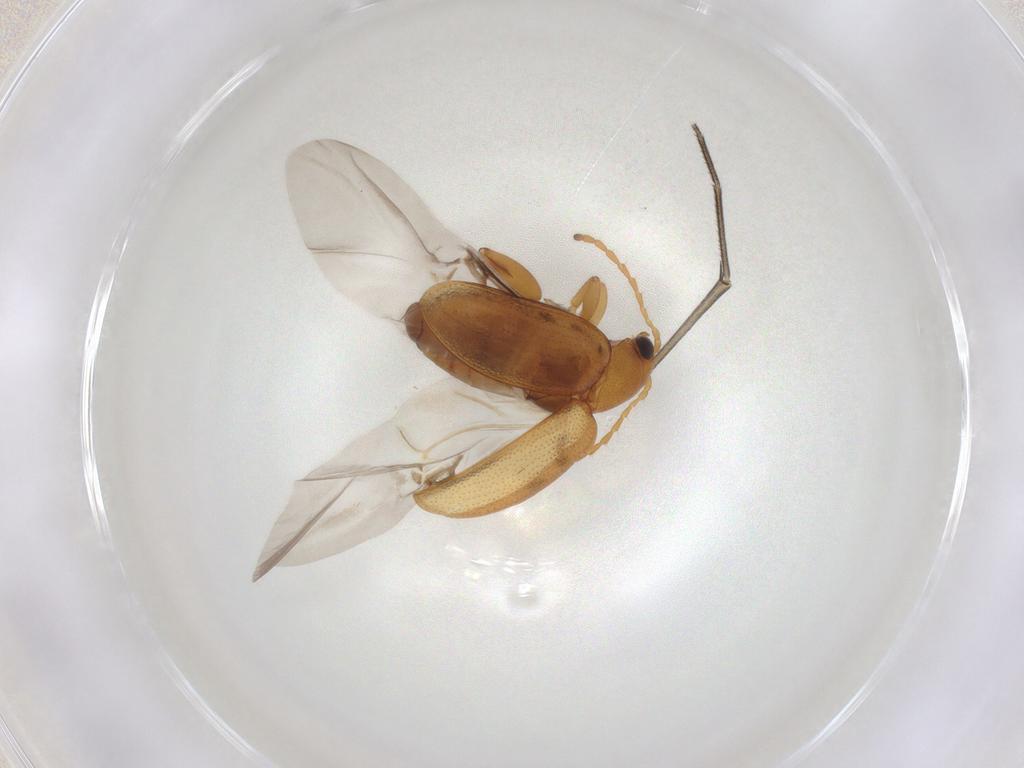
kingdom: Animalia
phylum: Arthropoda
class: Insecta
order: Coleoptera
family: Chrysomelidae
